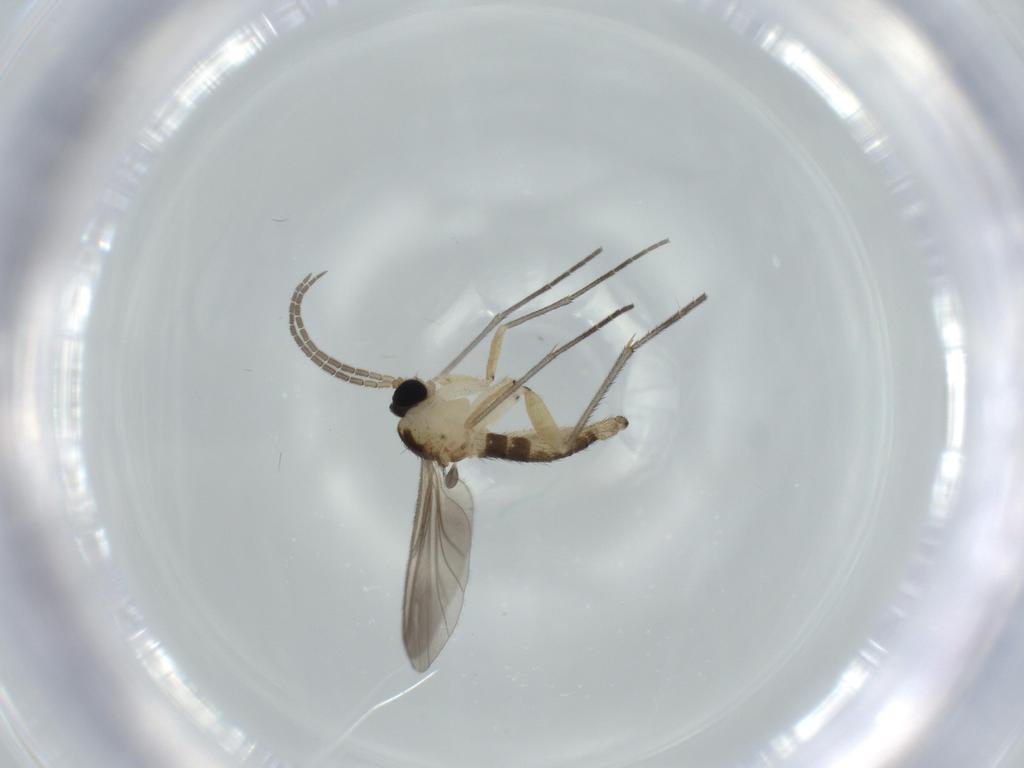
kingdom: Animalia
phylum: Arthropoda
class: Insecta
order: Diptera
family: Sciaridae
